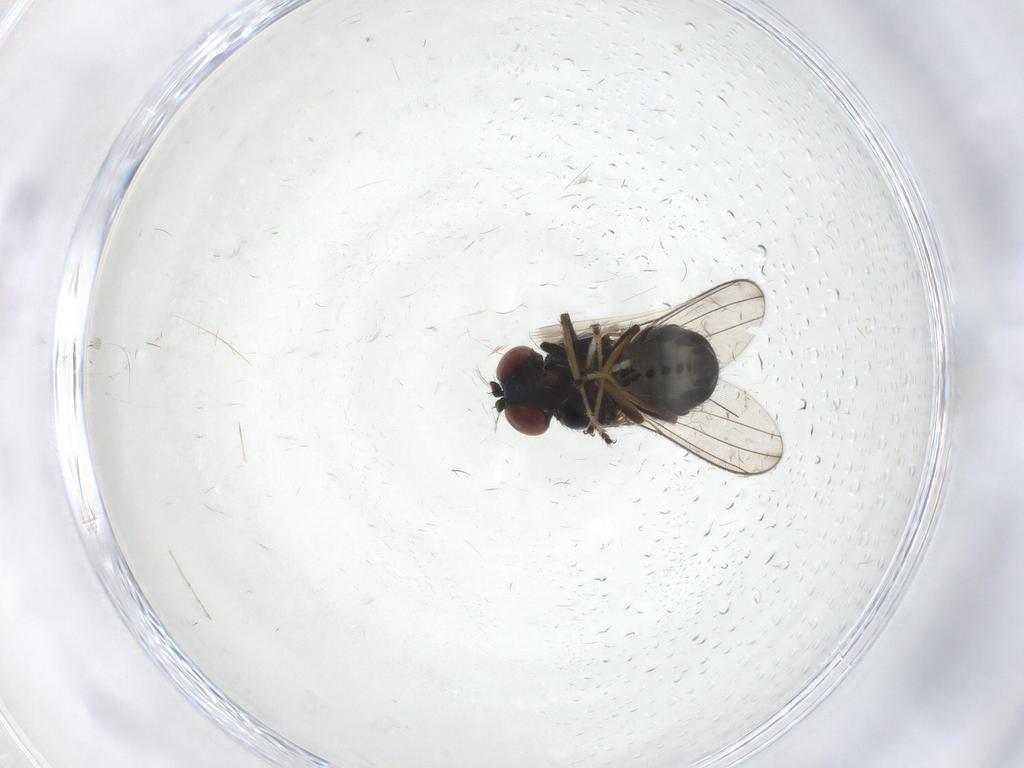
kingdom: Animalia
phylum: Arthropoda
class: Insecta
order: Diptera
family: Ephydridae
